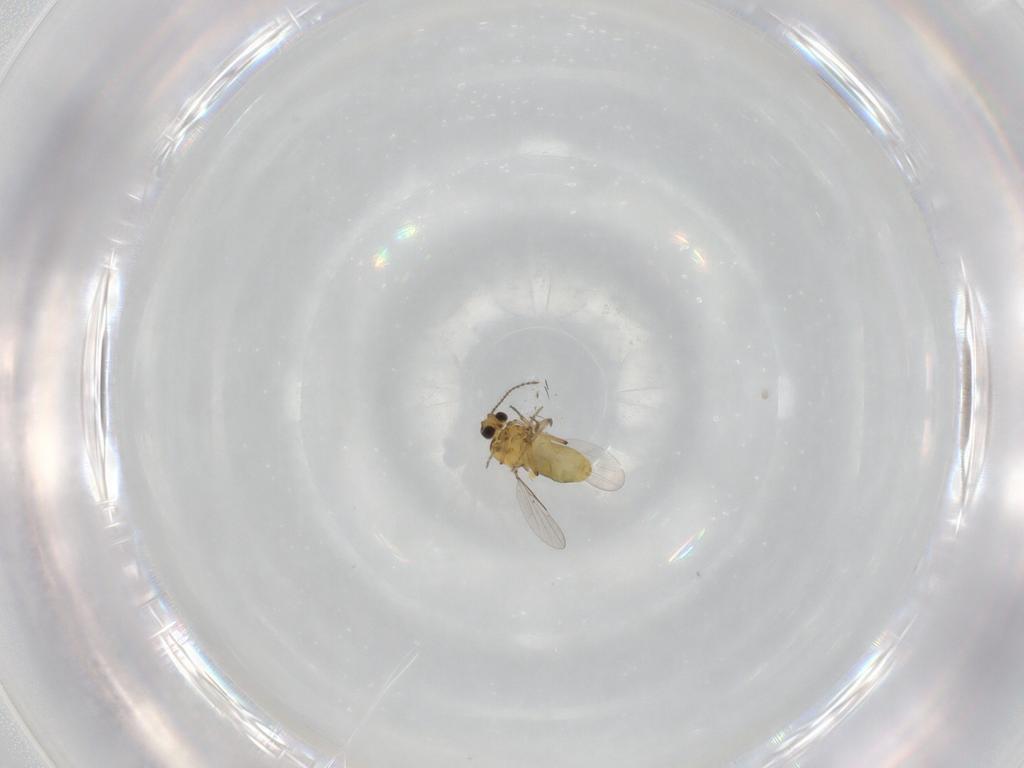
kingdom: Animalia
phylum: Arthropoda
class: Insecta
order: Diptera
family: Ceratopogonidae
